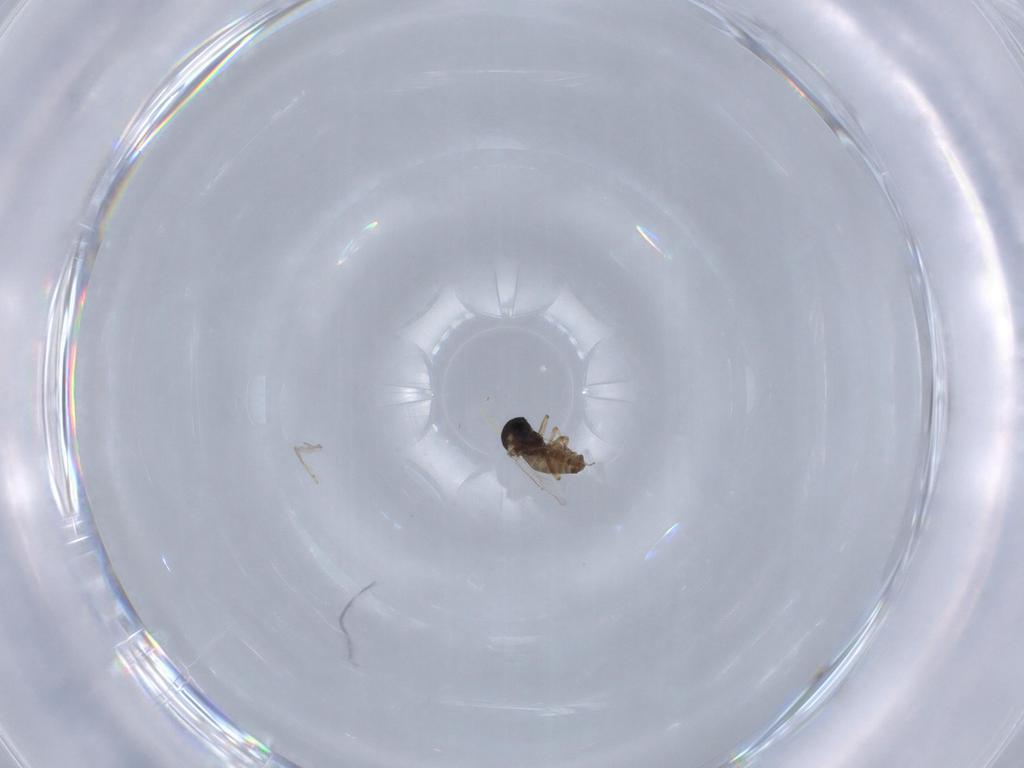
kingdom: Animalia
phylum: Arthropoda
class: Insecta
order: Diptera
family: Ceratopogonidae
